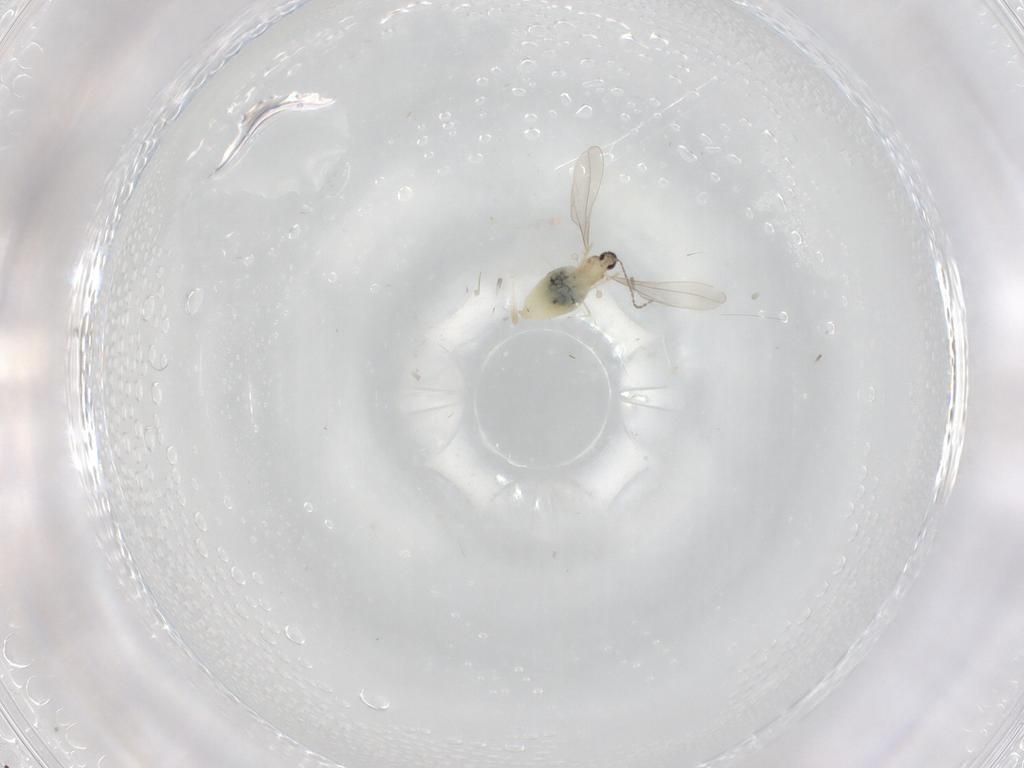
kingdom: Animalia
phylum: Arthropoda
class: Insecta
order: Diptera
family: Cecidomyiidae
